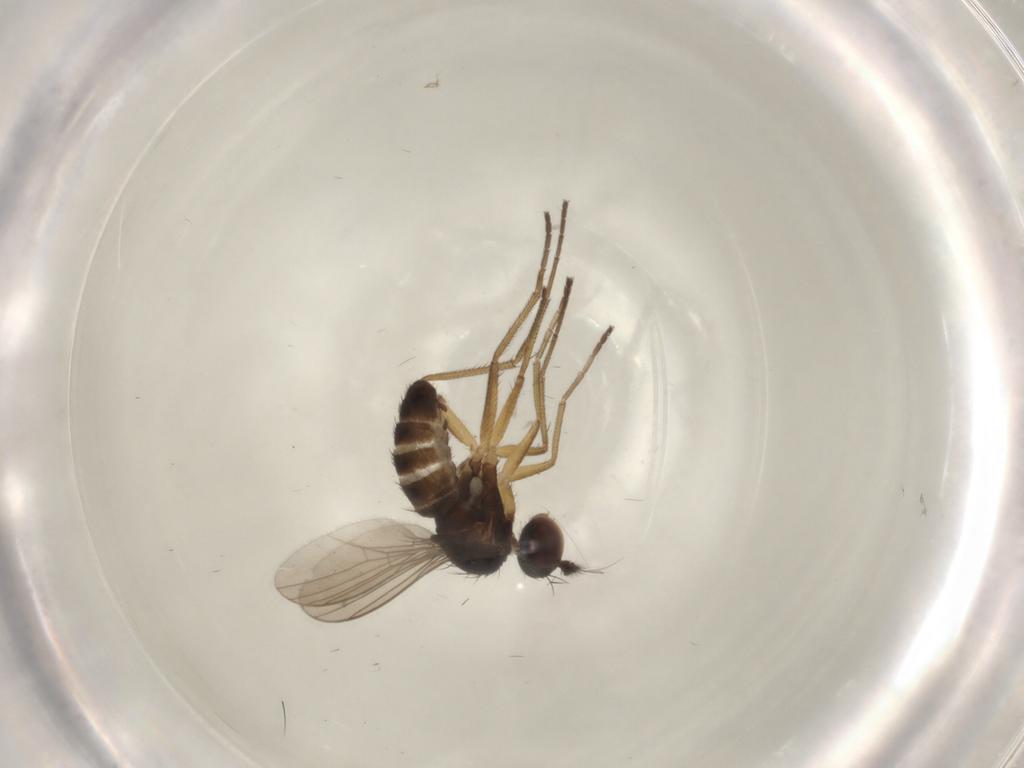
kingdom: Animalia
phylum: Arthropoda
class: Insecta
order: Diptera
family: Dolichopodidae
